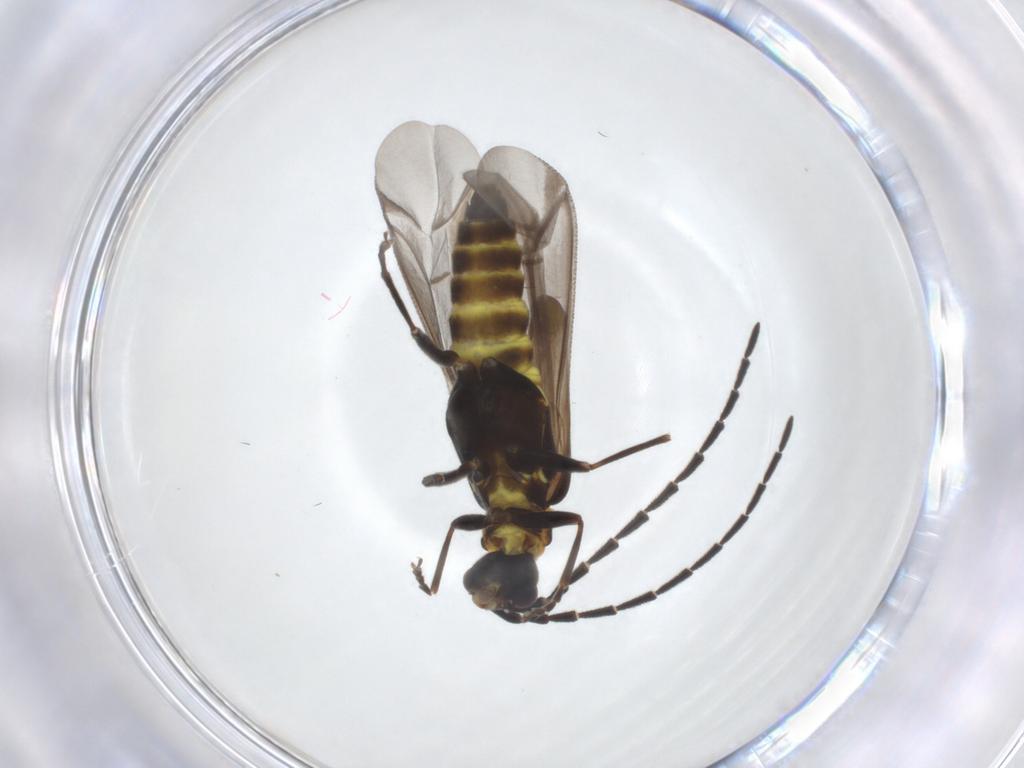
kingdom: Animalia
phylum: Arthropoda
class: Insecta
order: Coleoptera
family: Cantharidae
